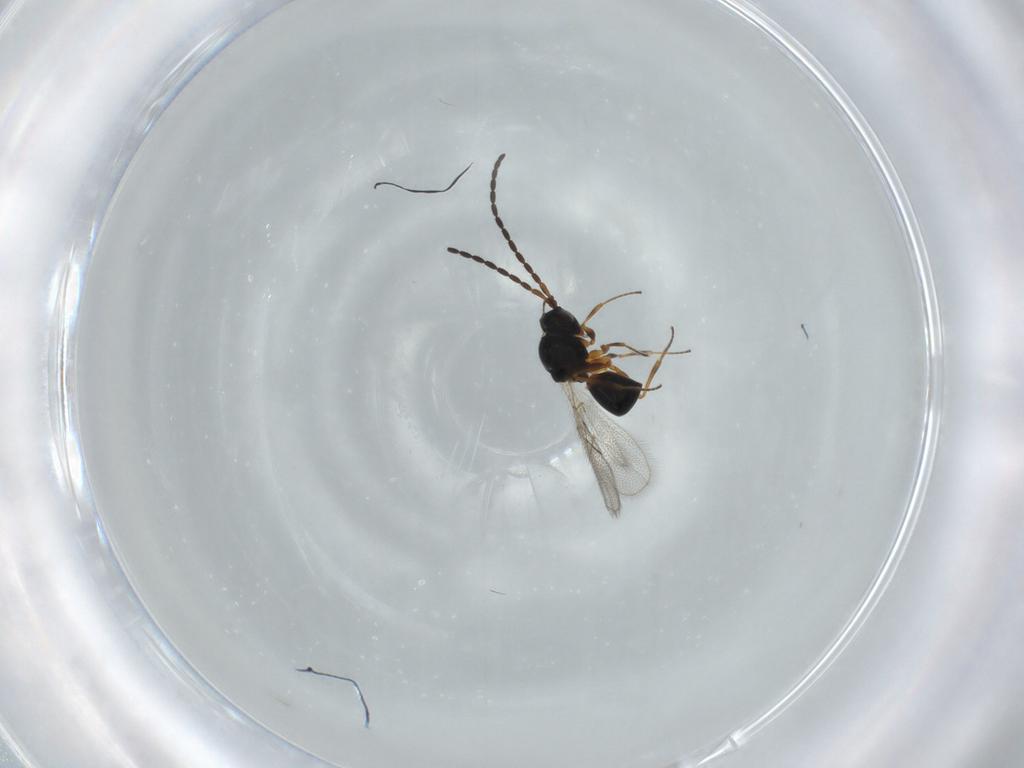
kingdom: Animalia
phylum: Arthropoda
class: Insecta
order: Hymenoptera
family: Figitidae
